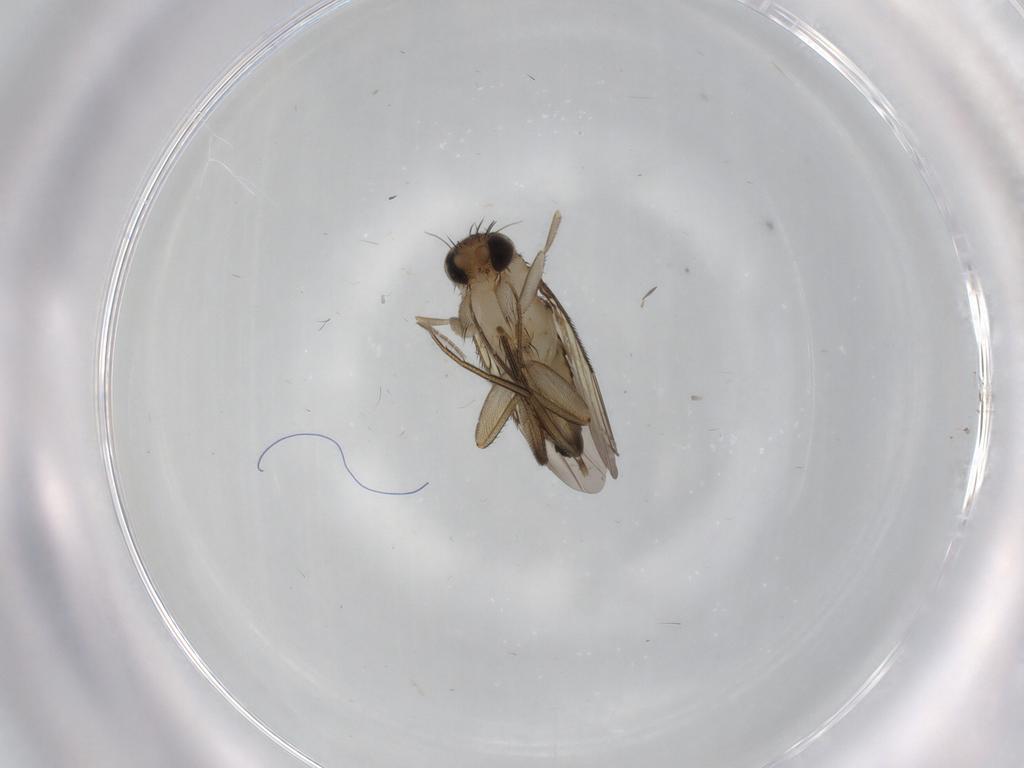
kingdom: Animalia
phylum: Arthropoda
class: Insecta
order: Diptera
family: Phoridae
